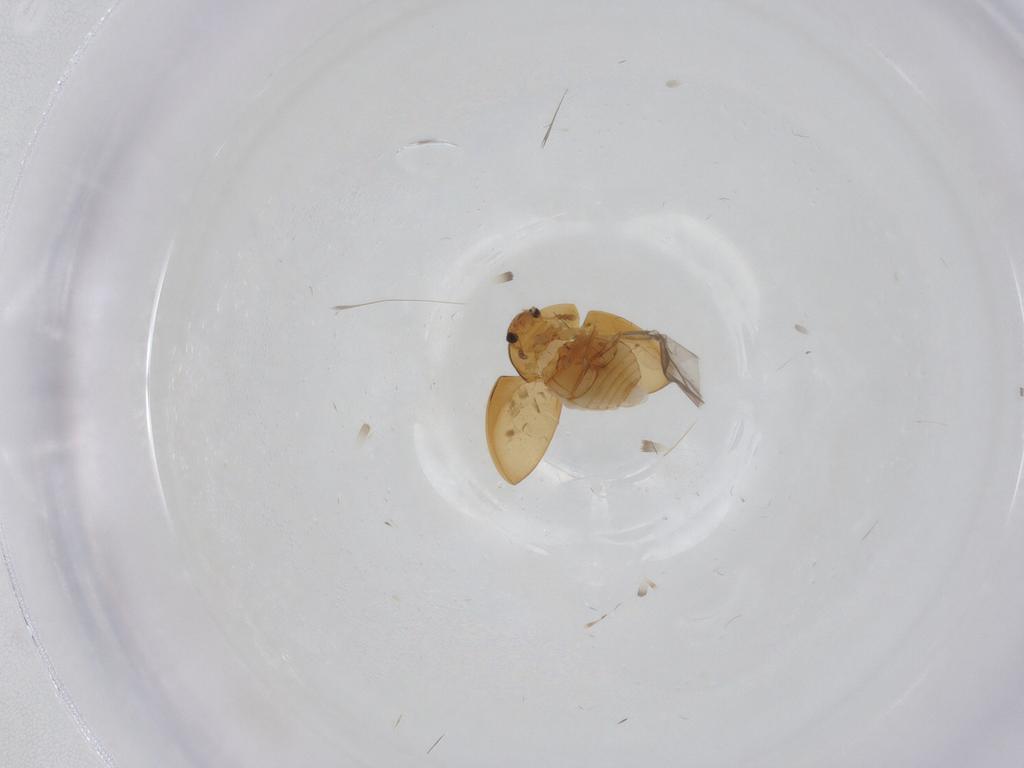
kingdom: Animalia
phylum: Arthropoda
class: Insecta
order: Coleoptera
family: Phalacridae
